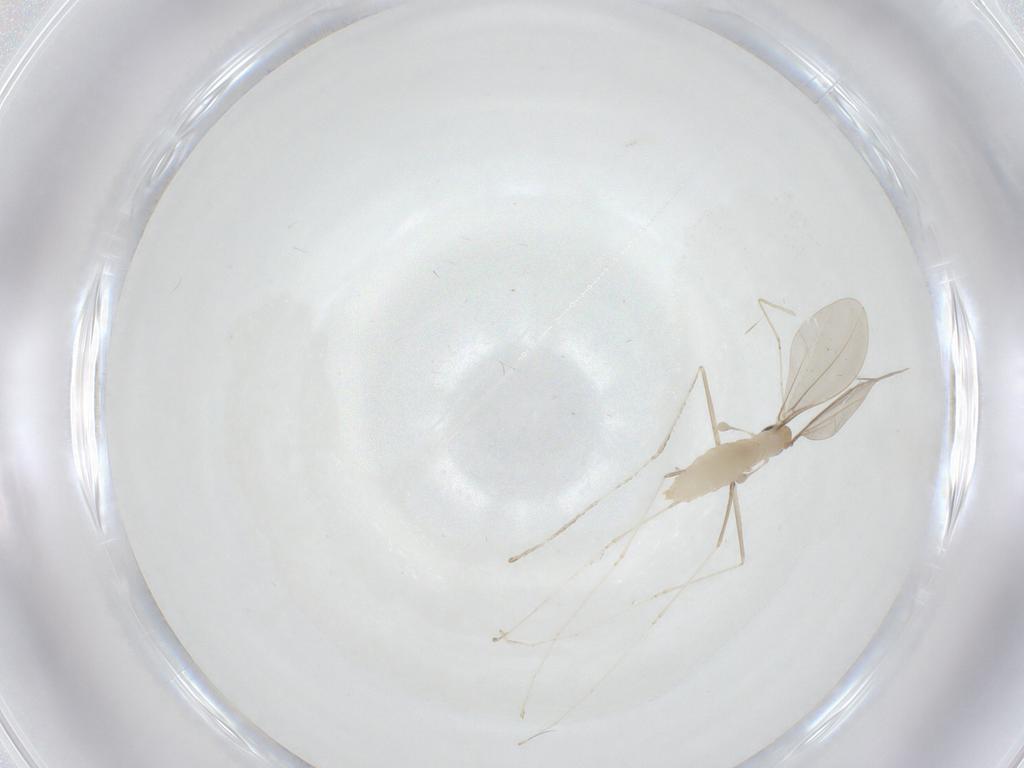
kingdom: Animalia
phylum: Arthropoda
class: Insecta
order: Diptera
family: Cecidomyiidae
